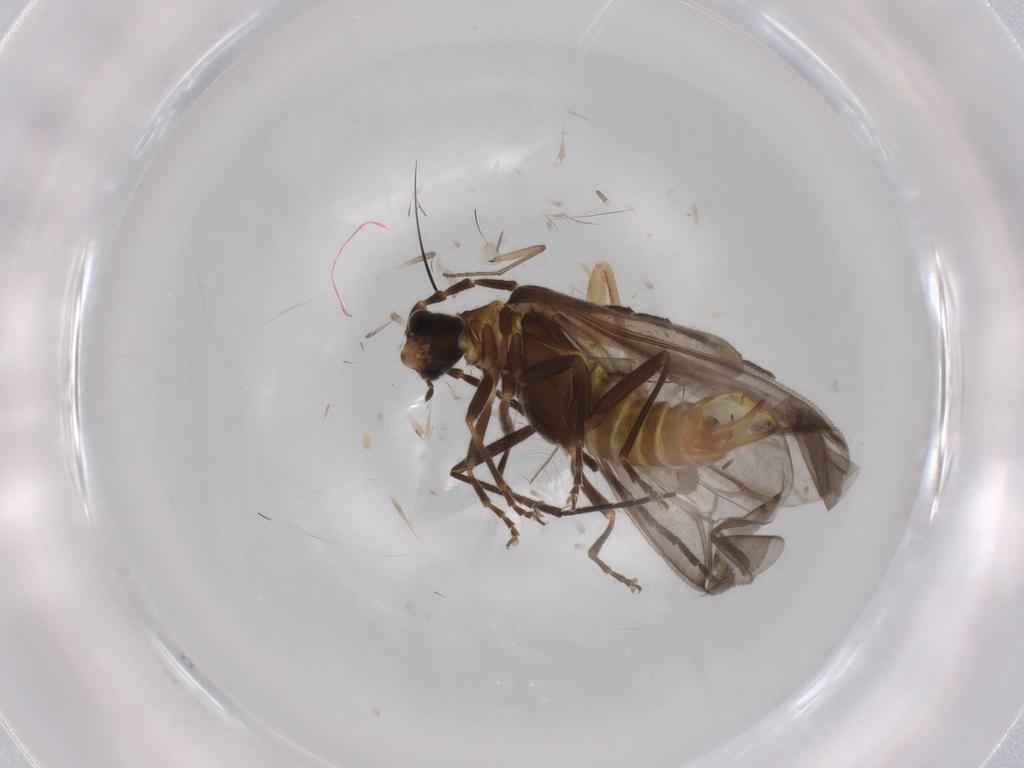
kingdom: Animalia
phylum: Arthropoda
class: Insecta
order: Coleoptera
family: Cantharidae
